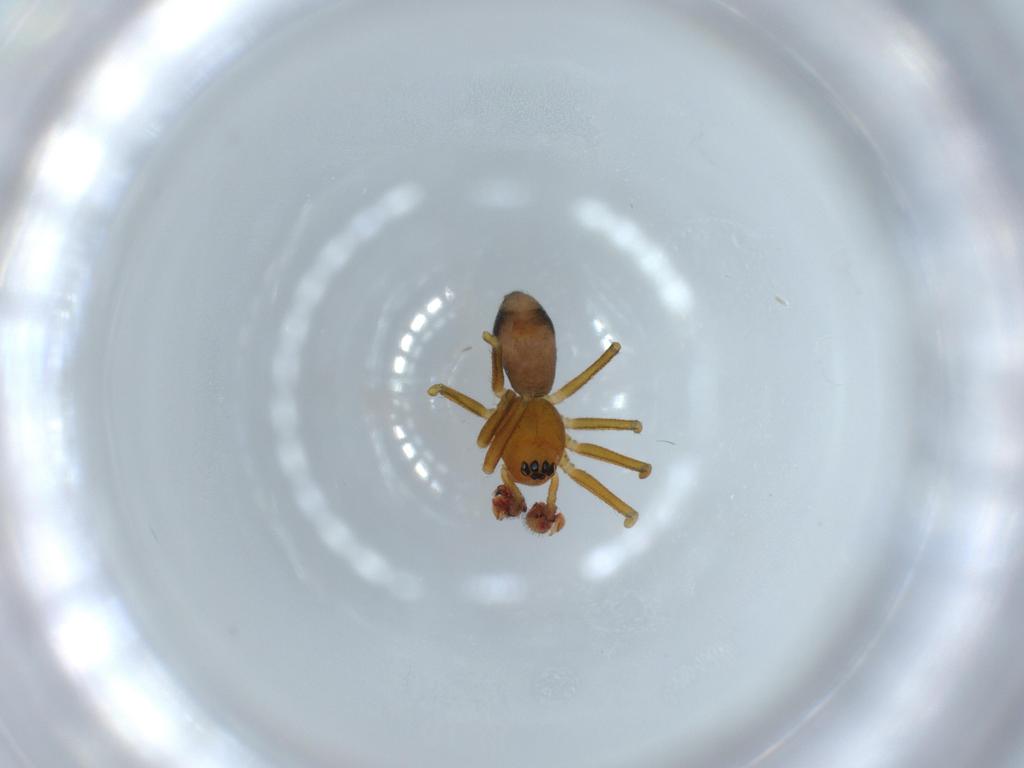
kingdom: Animalia
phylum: Arthropoda
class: Arachnida
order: Araneae
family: Linyphiidae
